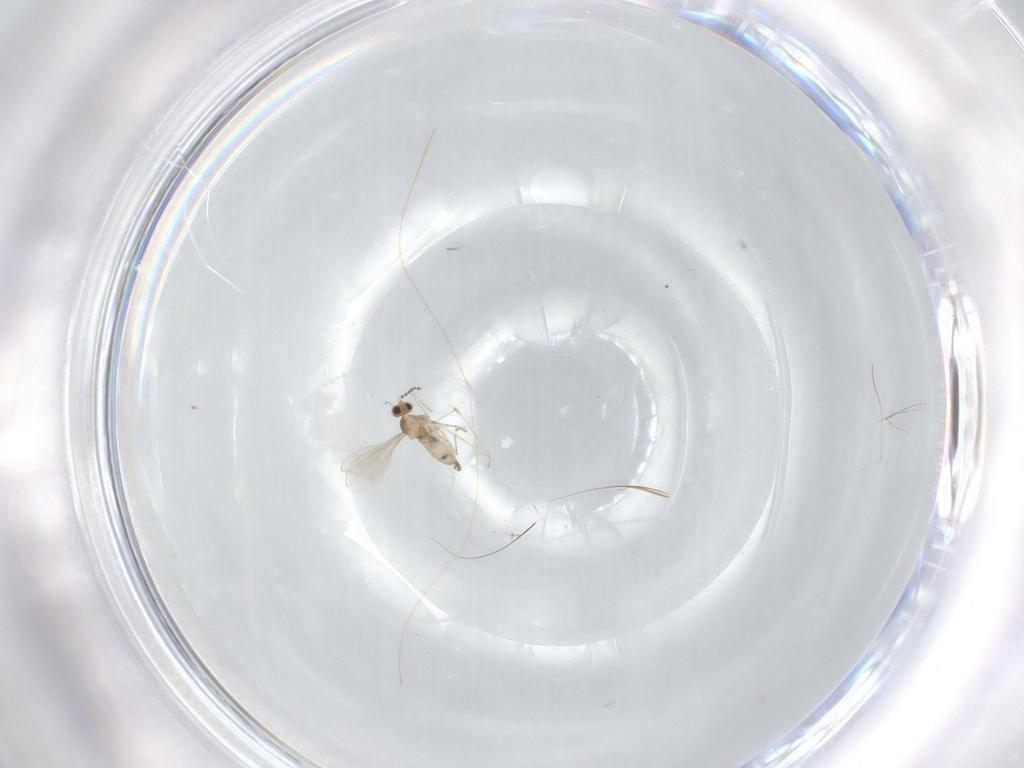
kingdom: Animalia
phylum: Arthropoda
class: Insecta
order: Diptera
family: Cecidomyiidae
